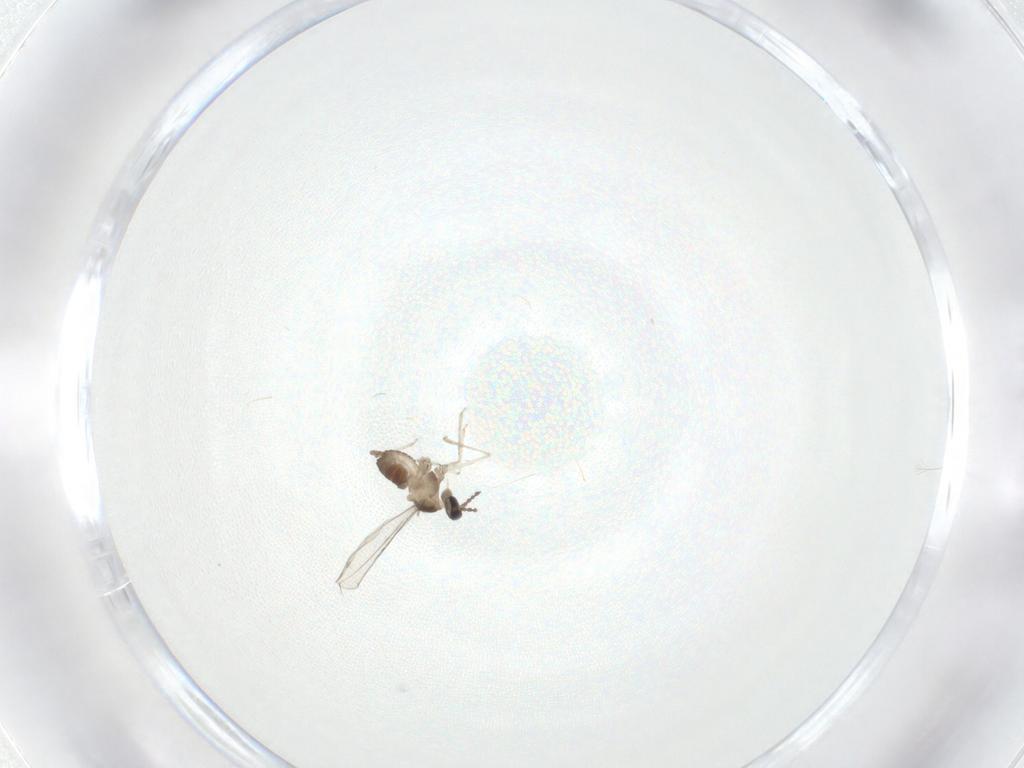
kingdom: Animalia
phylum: Arthropoda
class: Insecta
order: Diptera
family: Cecidomyiidae
